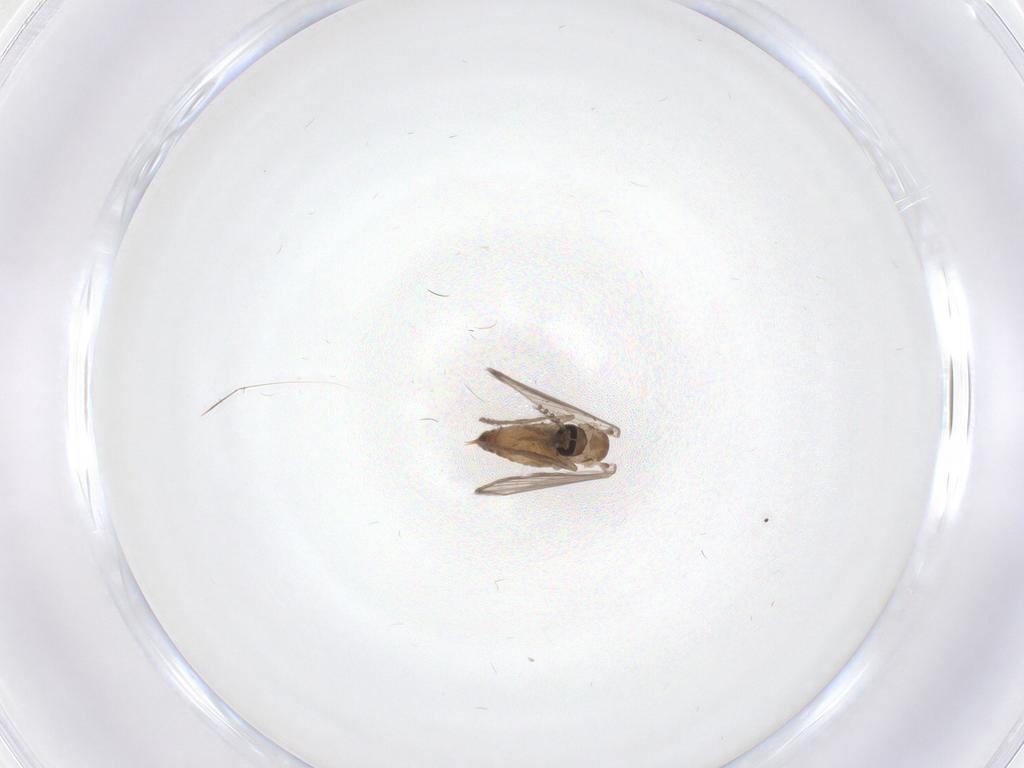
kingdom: Animalia
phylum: Arthropoda
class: Insecta
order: Diptera
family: Psychodidae
